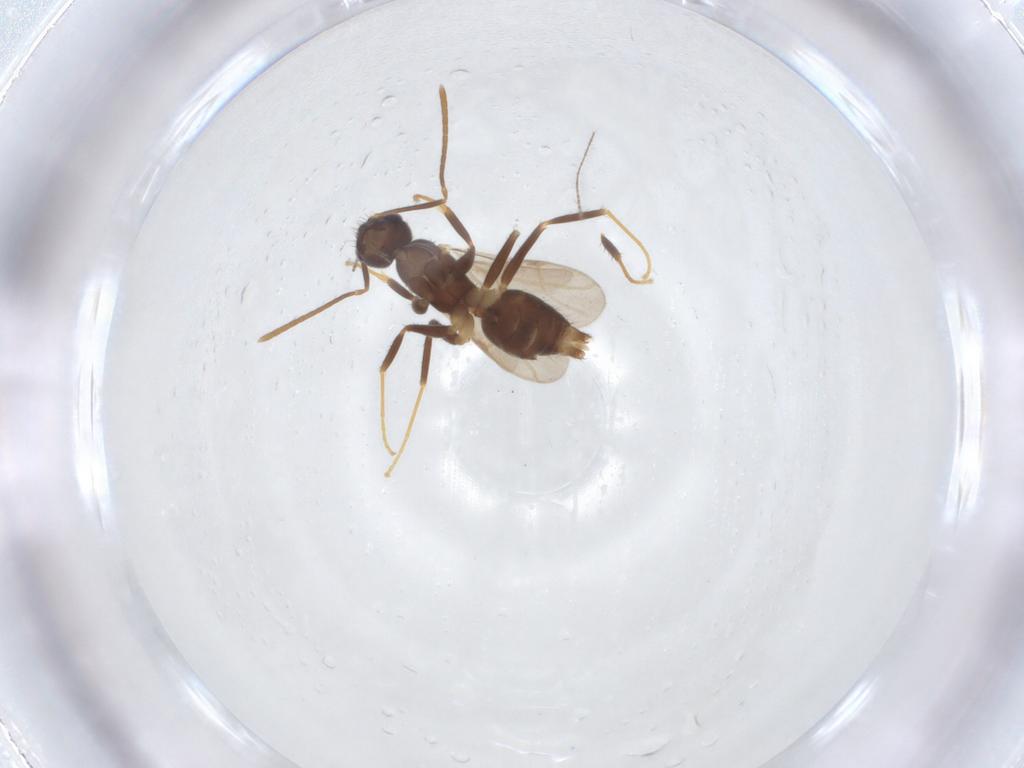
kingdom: Animalia
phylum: Arthropoda
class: Insecta
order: Hymenoptera
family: Formicidae
